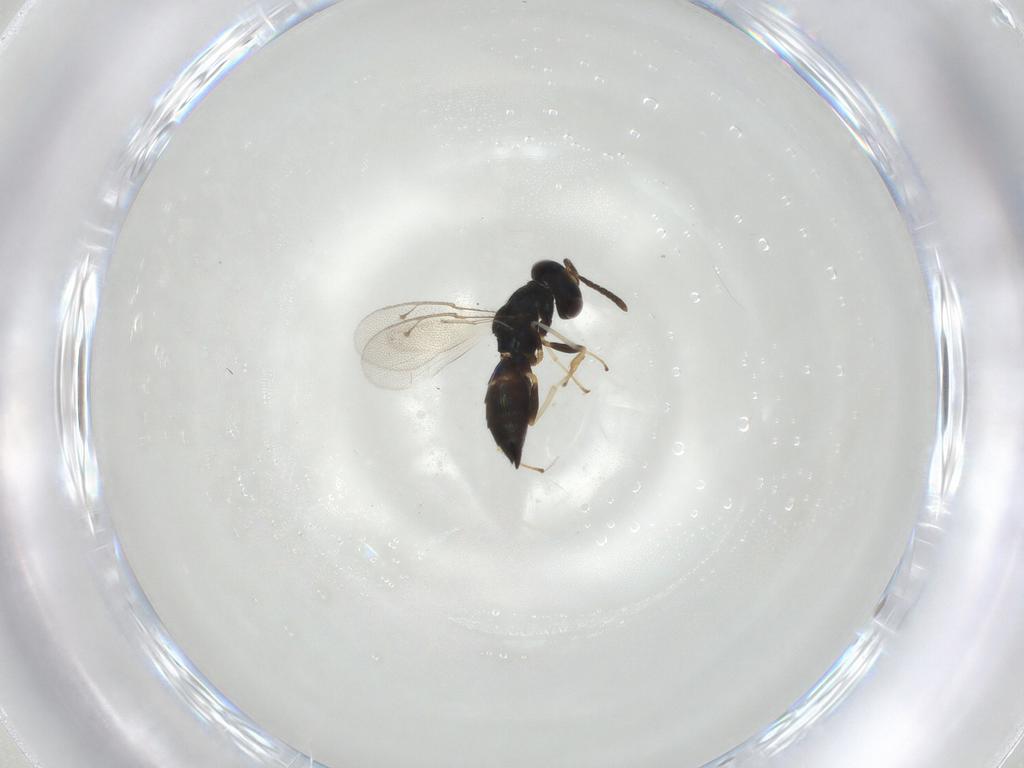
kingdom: Animalia
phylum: Arthropoda
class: Insecta
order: Hymenoptera
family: Pteromalidae
